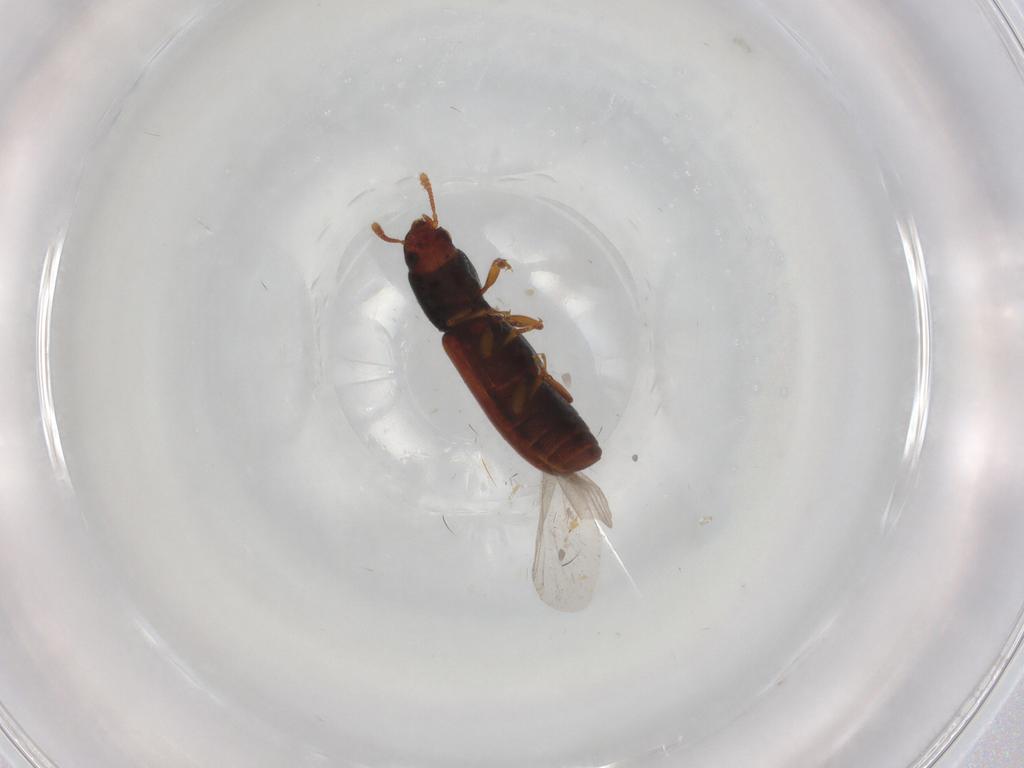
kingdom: Animalia
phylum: Arthropoda
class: Insecta
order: Coleoptera
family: Salpingidae
